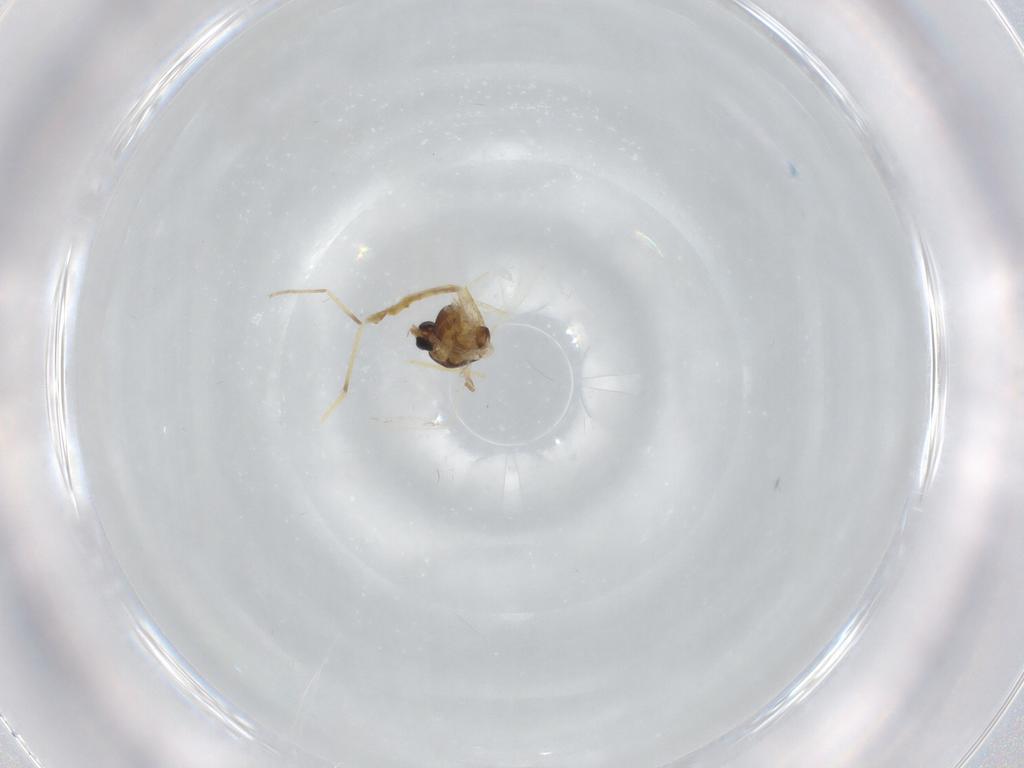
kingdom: Animalia
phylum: Arthropoda
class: Insecta
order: Diptera
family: Chironomidae
